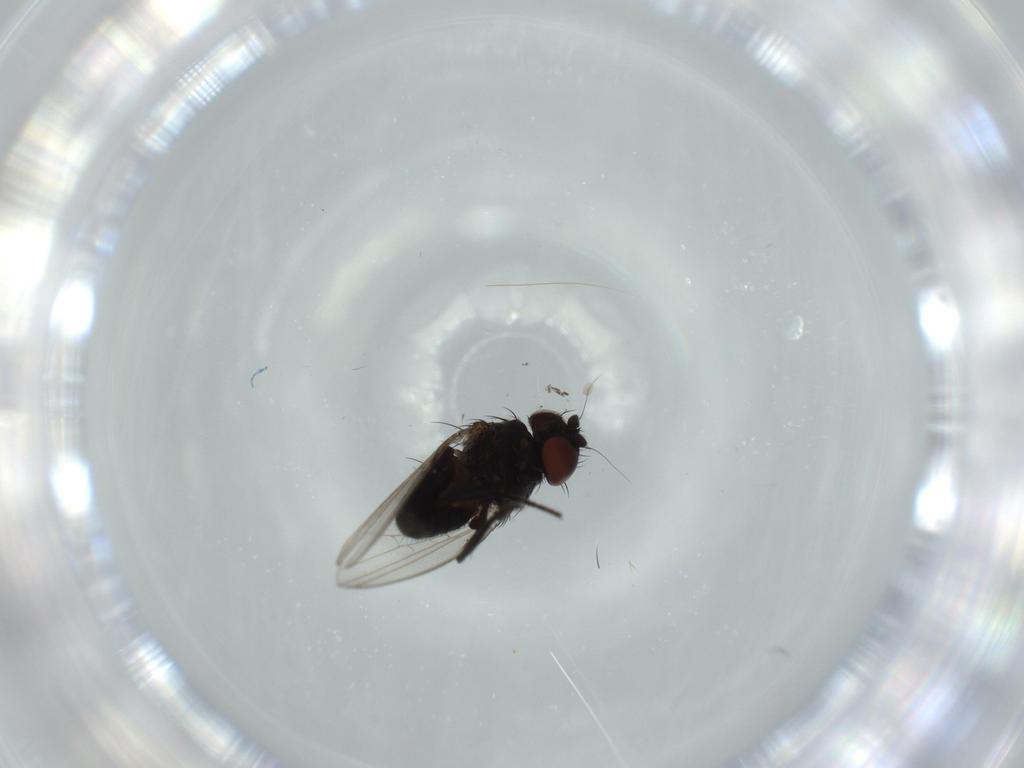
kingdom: Animalia
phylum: Arthropoda
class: Insecta
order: Diptera
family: Milichiidae
